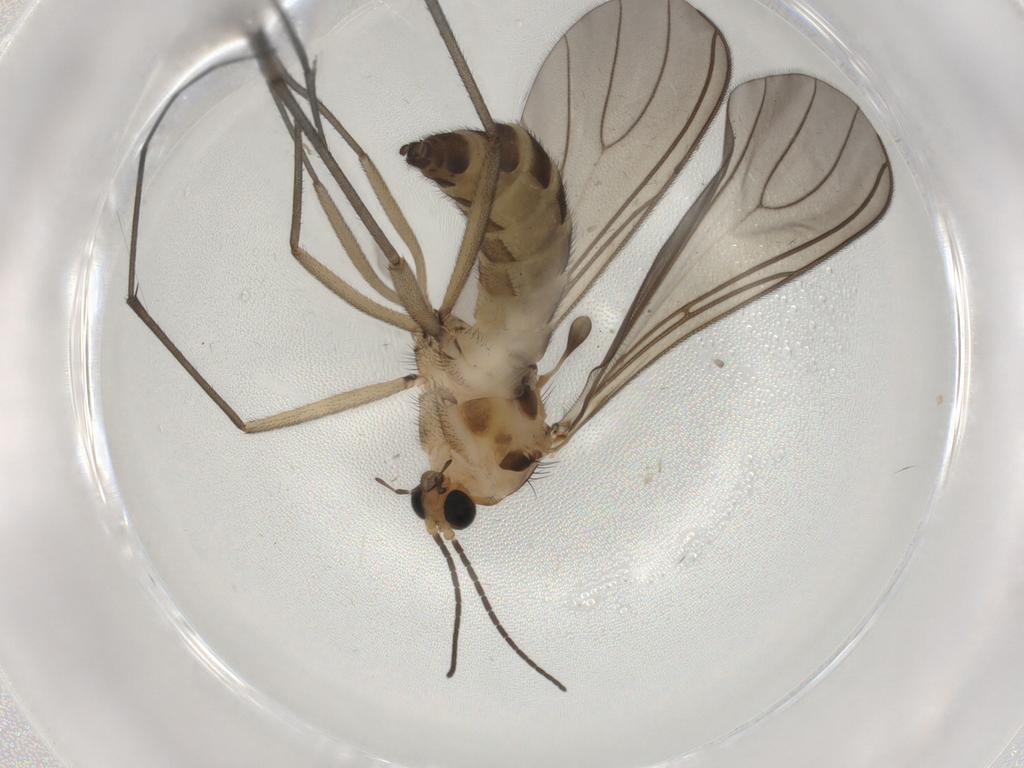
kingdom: Animalia
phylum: Arthropoda
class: Insecta
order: Diptera
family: Sciaridae
